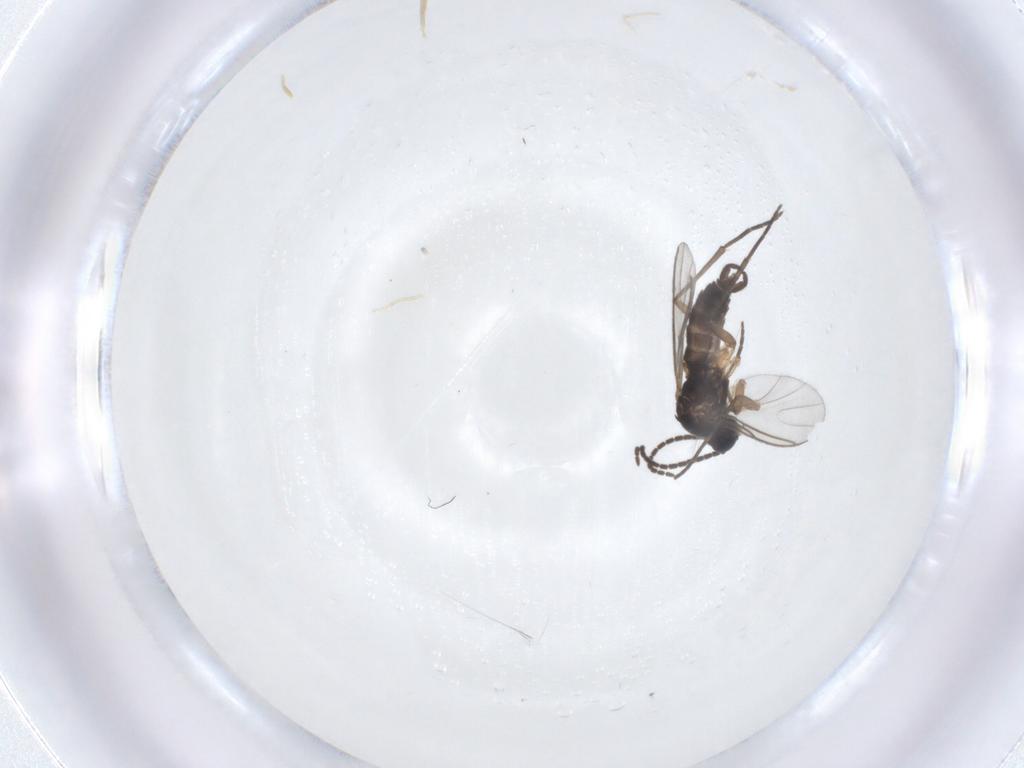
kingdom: Animalia
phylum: Arthropoda
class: Insecta
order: Diptera
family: Sciaridae
